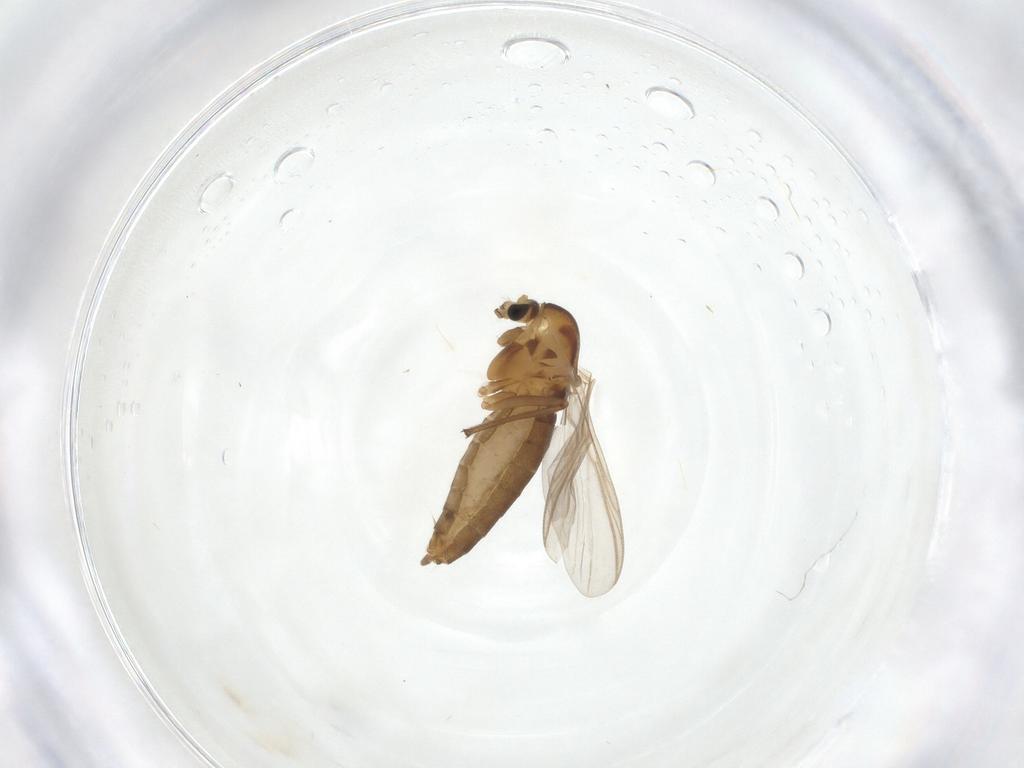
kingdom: Animalia
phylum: Arthropoda
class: Insecta
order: Diptera
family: Chironomidae
